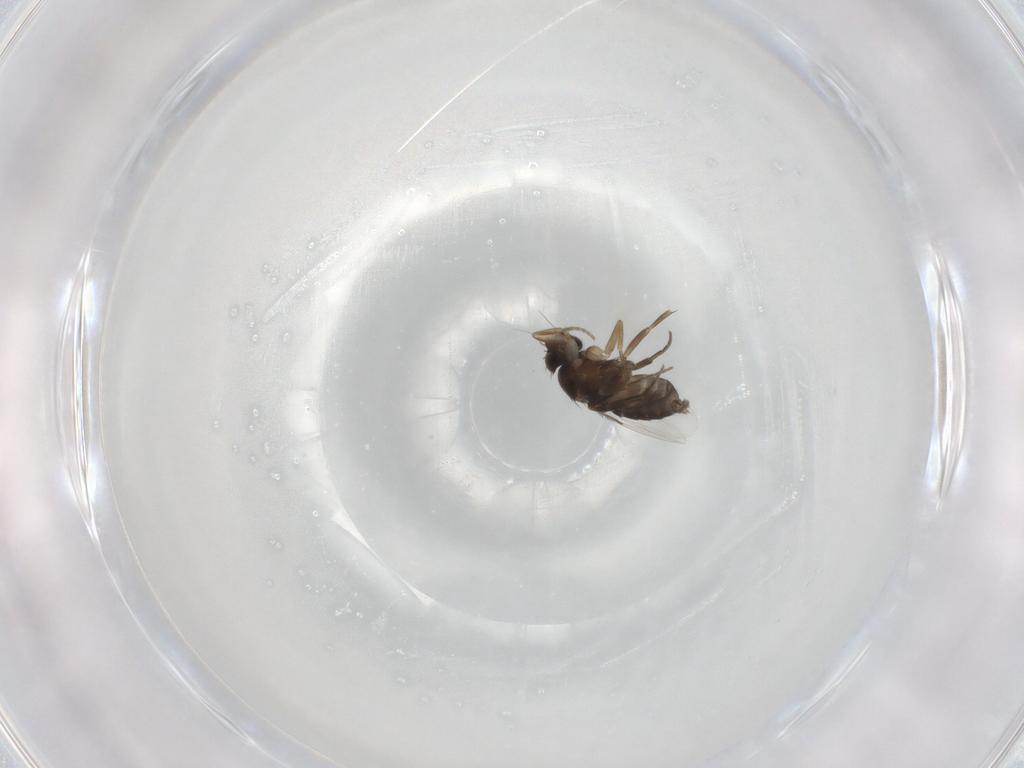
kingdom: Animalia
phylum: Arthropoda
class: Insecta
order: Diptera
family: Phoridae
